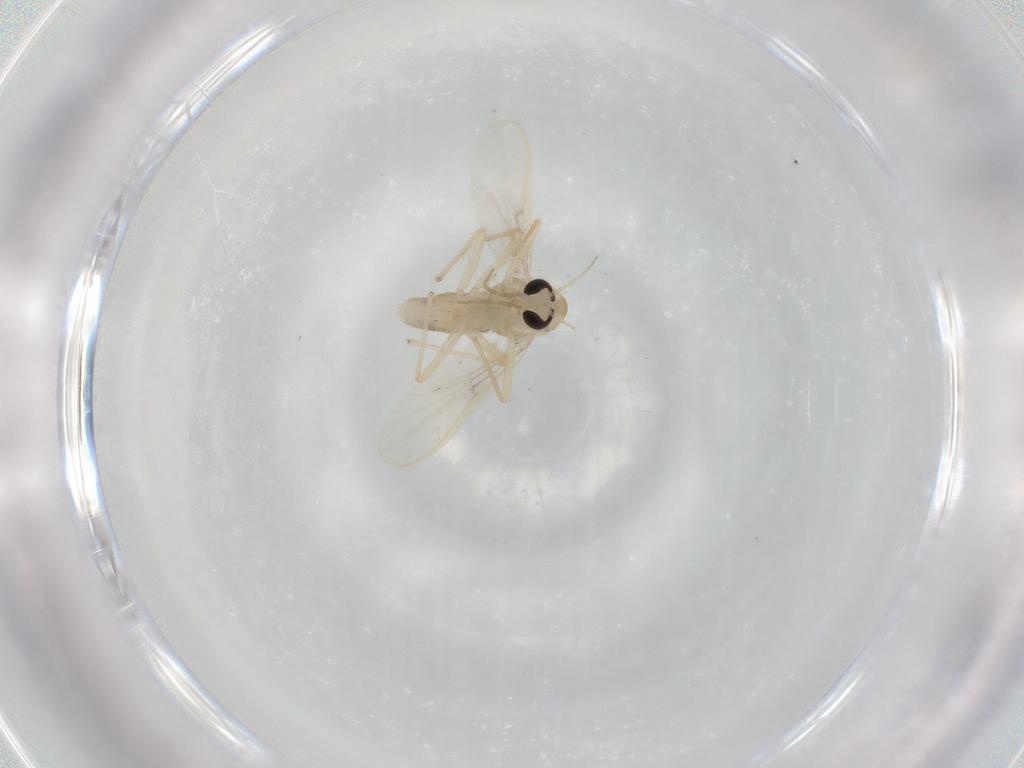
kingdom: Animalia
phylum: Arthropoda
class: Insecta
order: Diptera
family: Chironomidae
